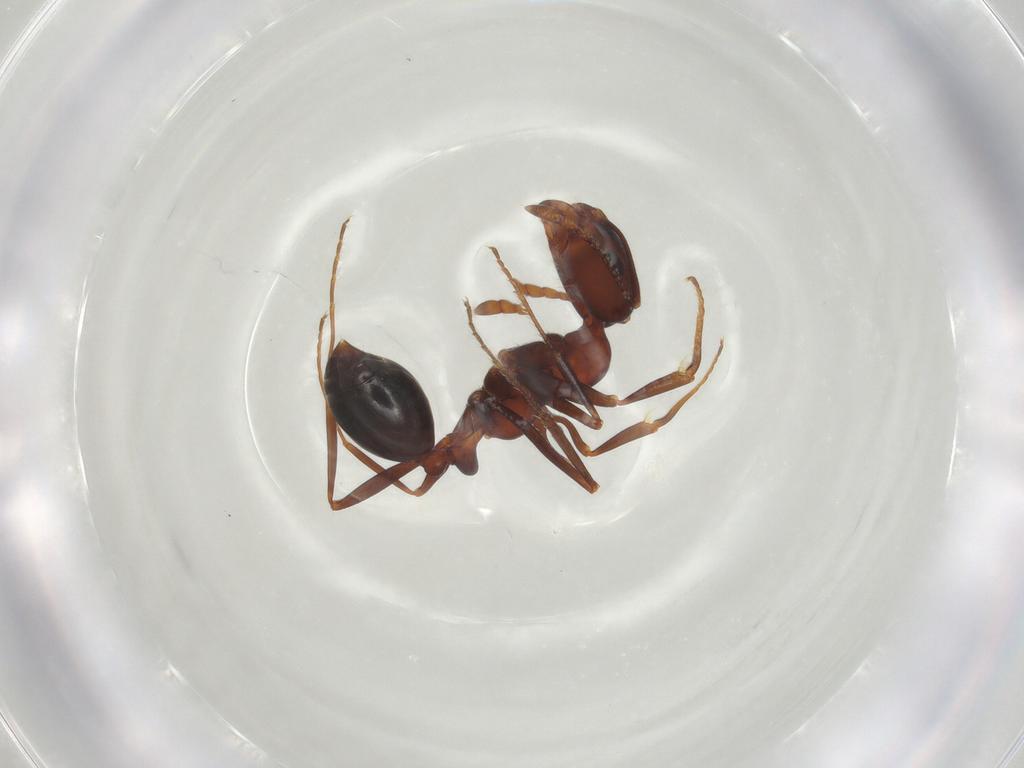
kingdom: Animalia
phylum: Arthropoda
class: Insecta
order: Hymenoptera
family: Formicidae
